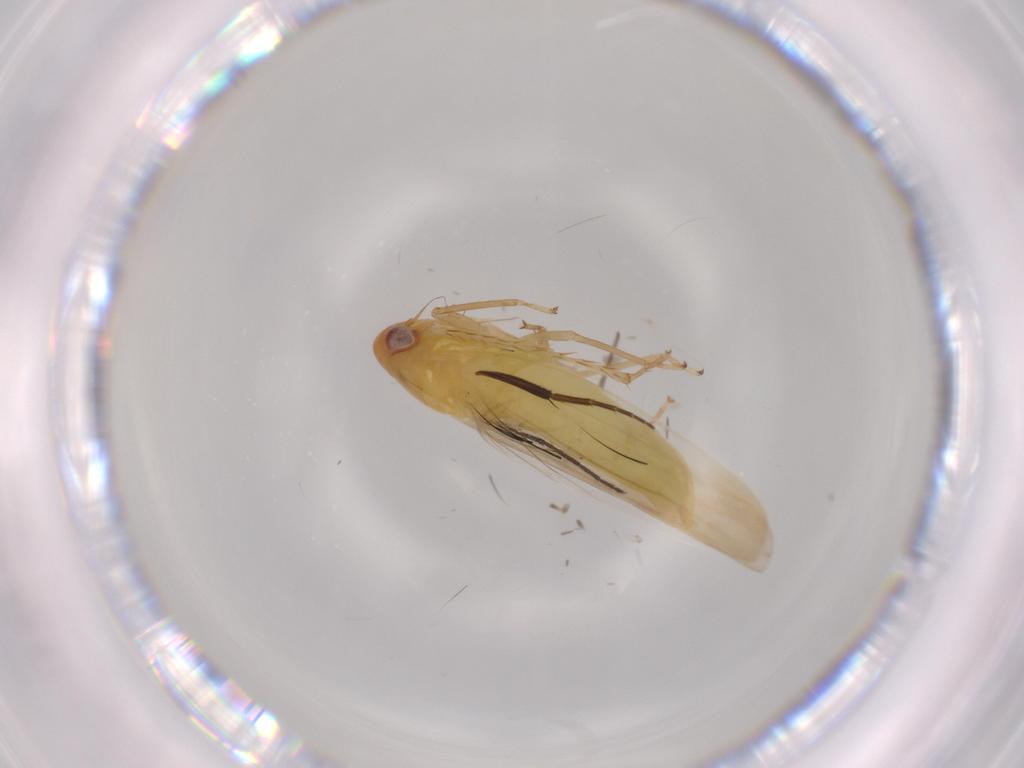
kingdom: Animalia
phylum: Arthropoda
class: Insecta
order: Hemiptera
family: Cicadellidae
